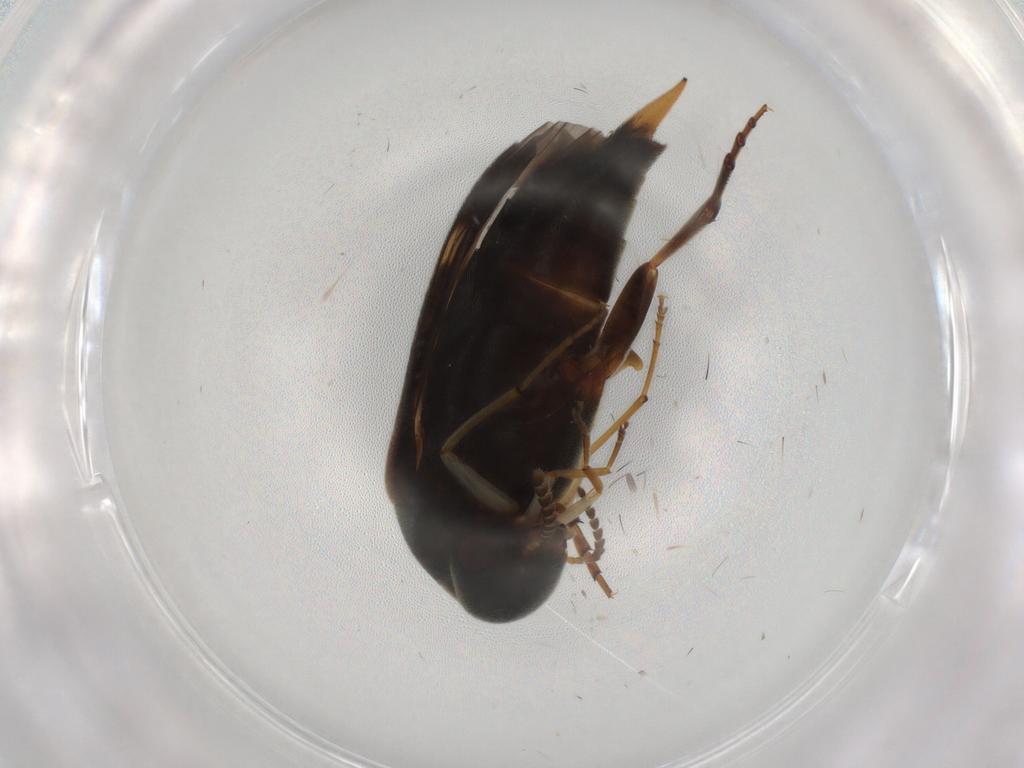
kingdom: Animalia
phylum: Arthropoda
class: Insecta
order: Coleoptera
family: Mordellidae
